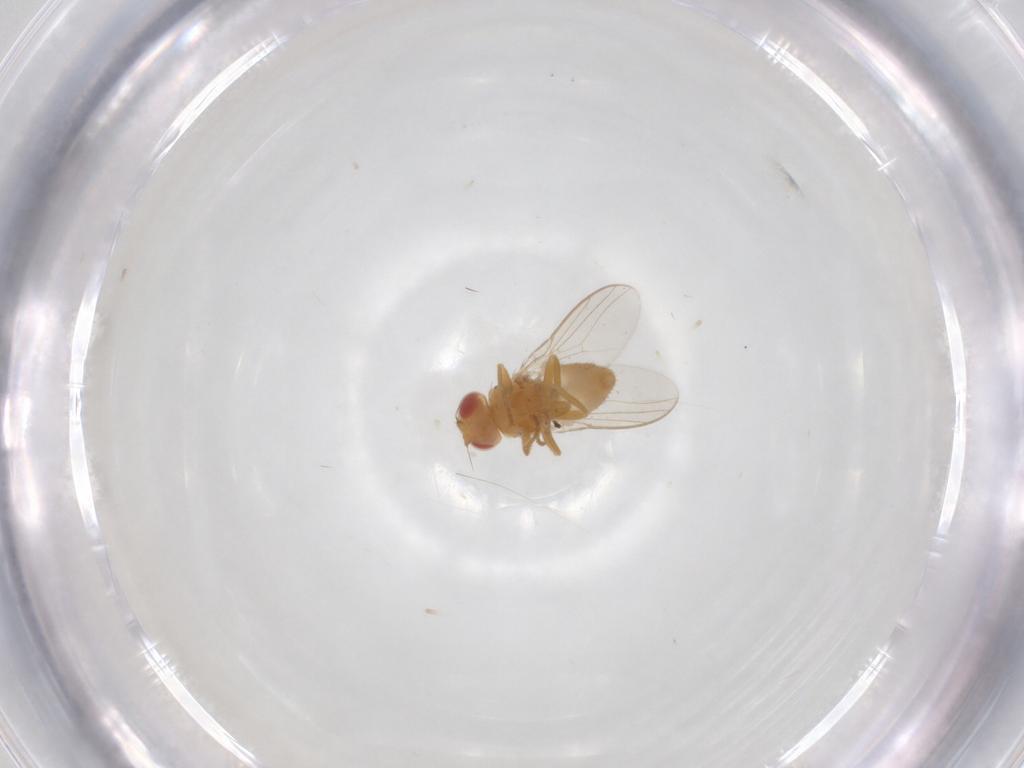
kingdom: Animalia
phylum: Arthropoda
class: Insecta
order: Diptera
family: Chloropidae
